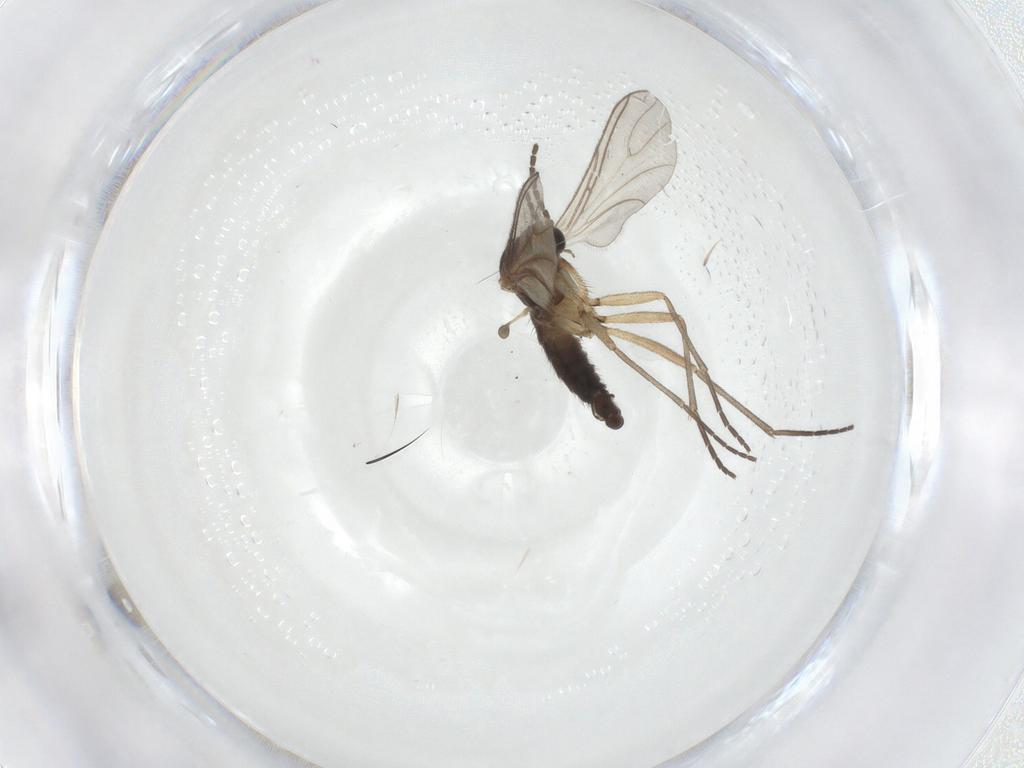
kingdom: Animalia
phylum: Arthropoda
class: Insecta
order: Diptera
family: Sciaridae
